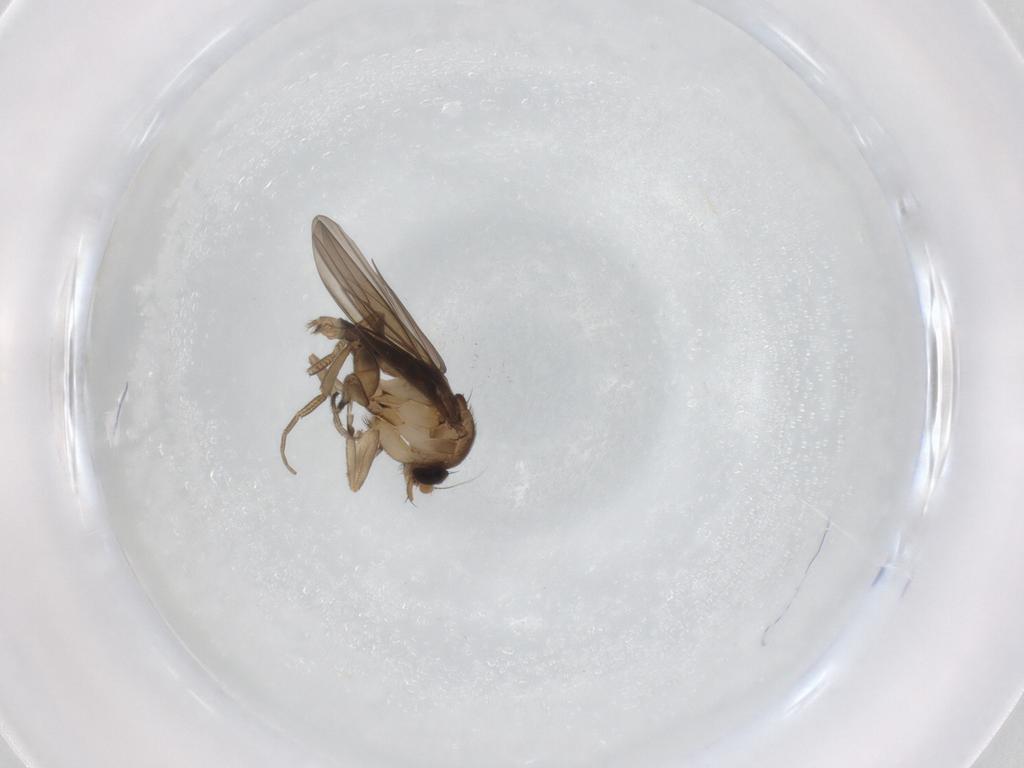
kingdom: Animalia
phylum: Arthropoda
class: Insecta
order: Diptera
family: Phoridae
